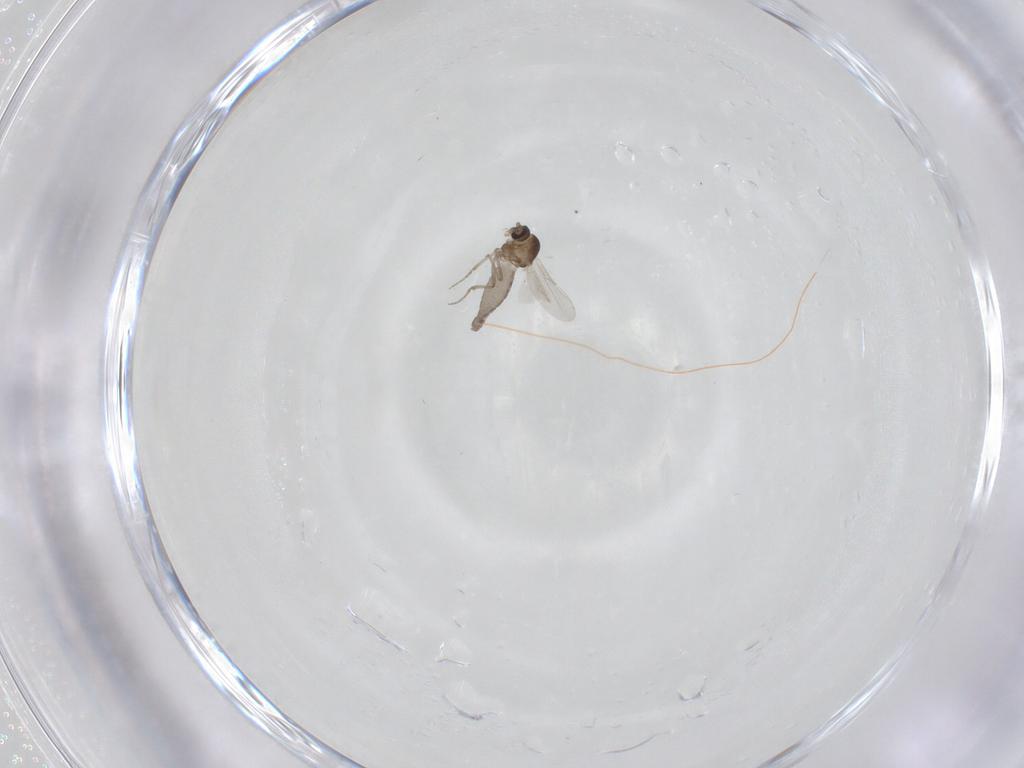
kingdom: Animalia
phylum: Arthropoda
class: Insecta
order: Diptera
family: Ceratopogonidae
